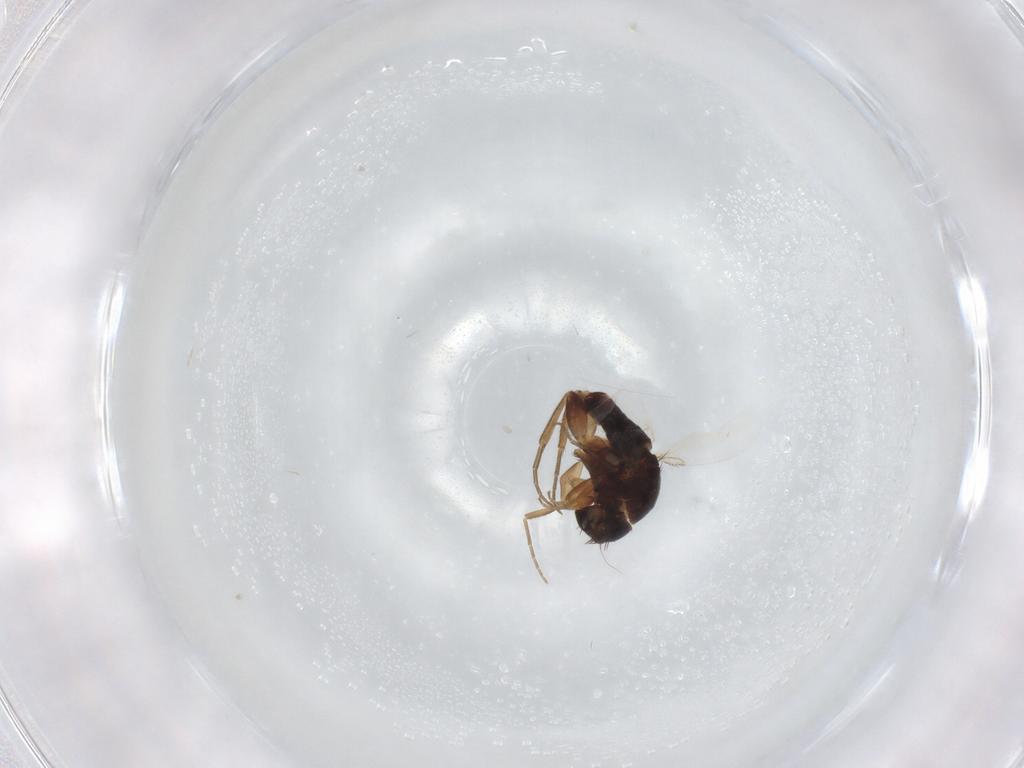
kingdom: Animalia
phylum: Arthropoda
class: Insecta
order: Diptera
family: Ephydridae
